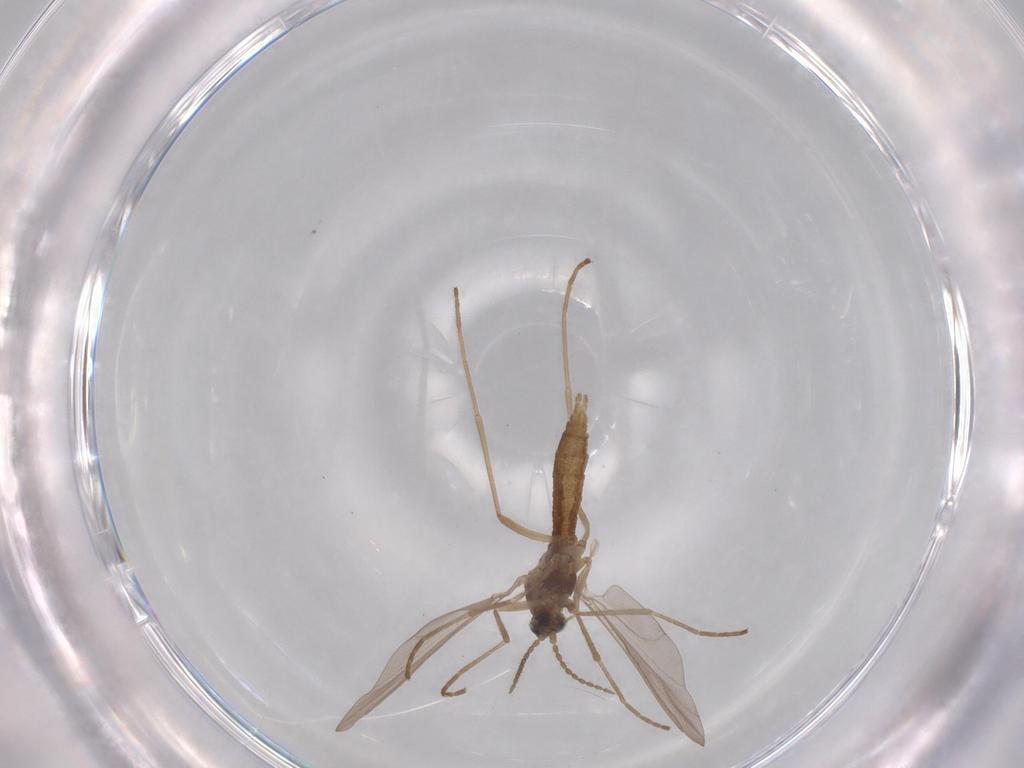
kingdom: Animalia
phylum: Arthropoda
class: Insecta
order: Diptera
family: Cecidomyiidae
